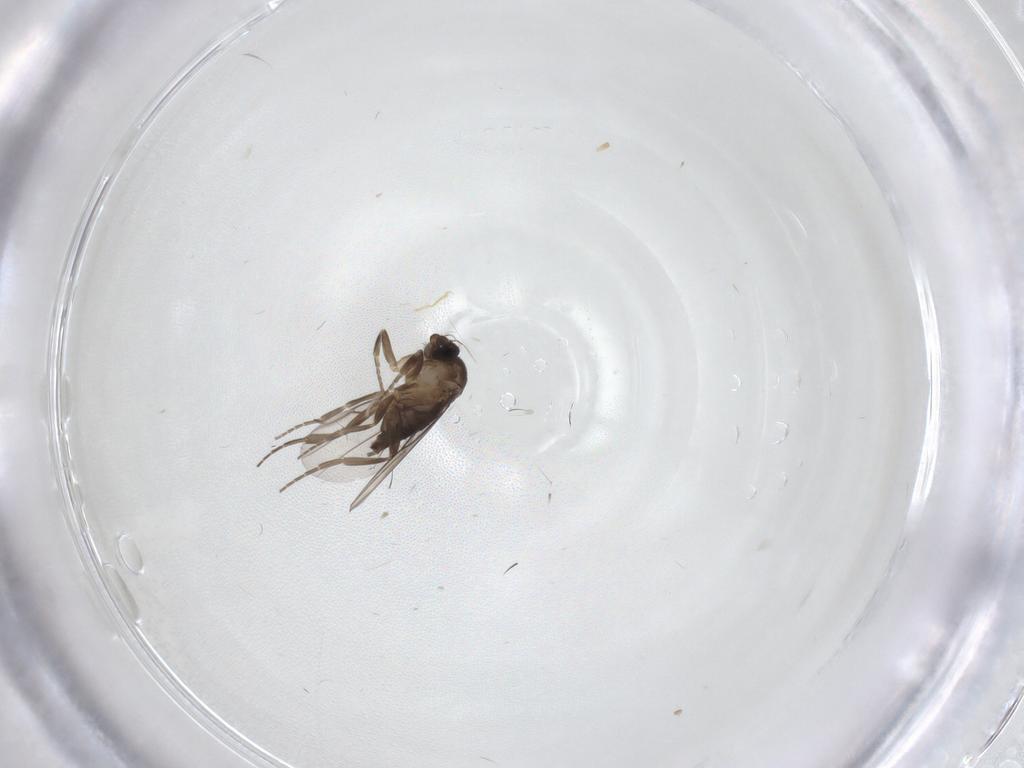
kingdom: Animalia
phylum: Arthropoda
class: Insecta
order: Diptera
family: Cecidomyiidae
